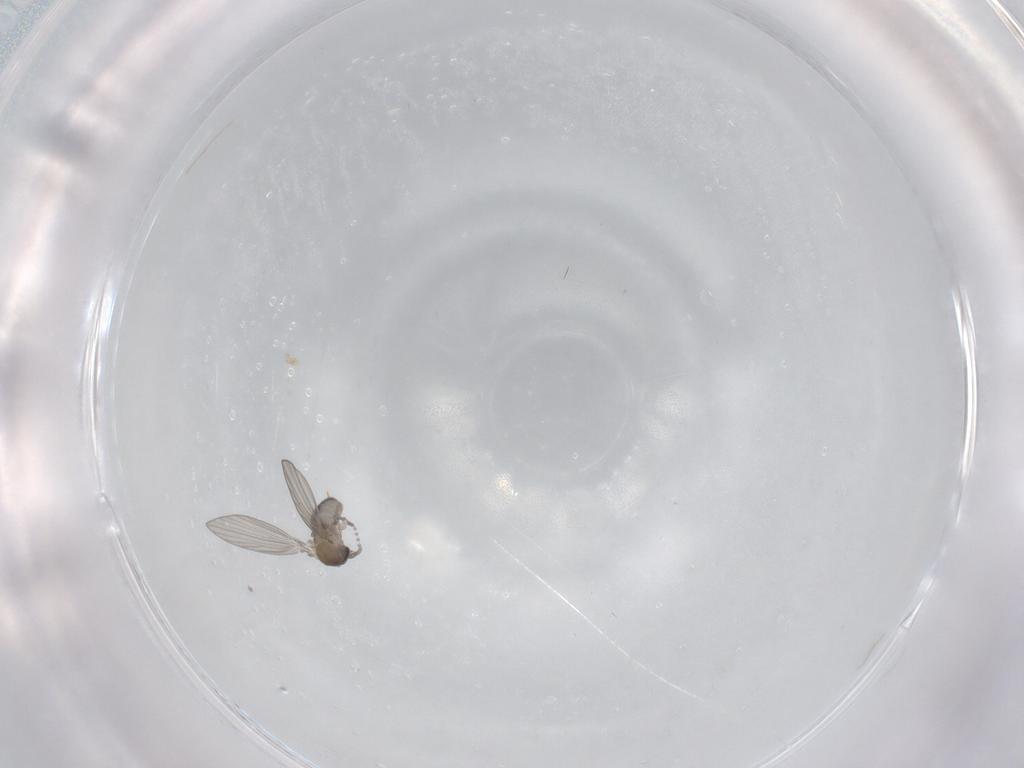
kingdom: Animalia
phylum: Arthropoda
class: Insecta
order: Diptera
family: Psychodidae
